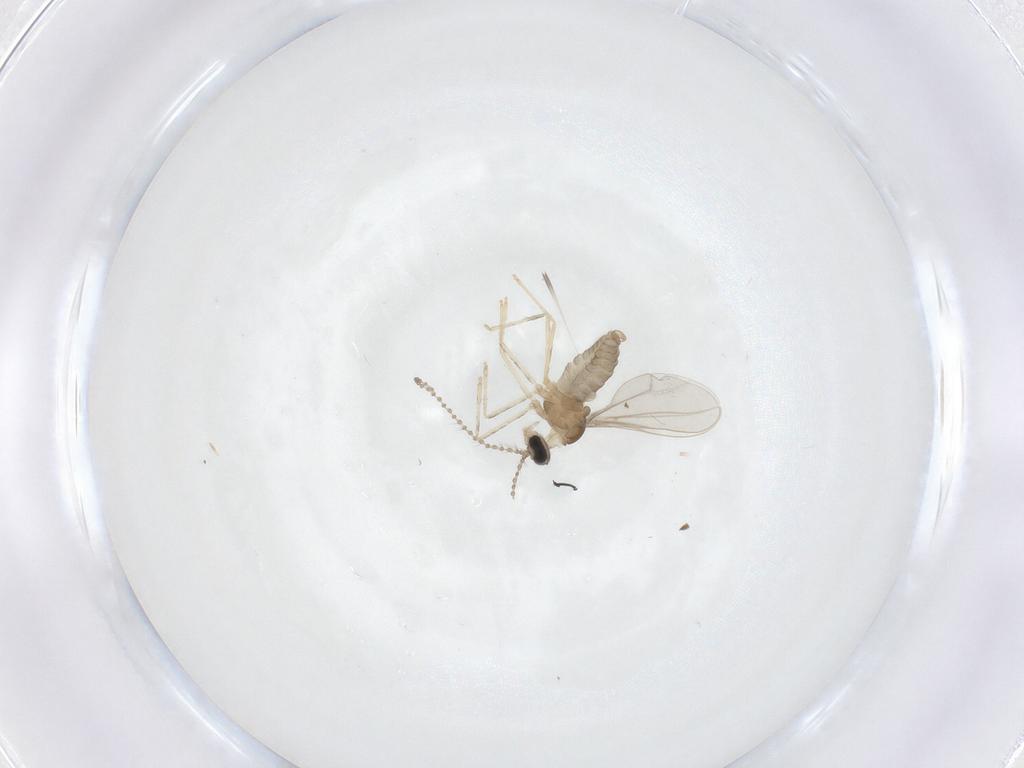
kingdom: Animalia
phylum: Arthropoda
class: Insecta
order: Diptera
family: Cecidomyiidae
